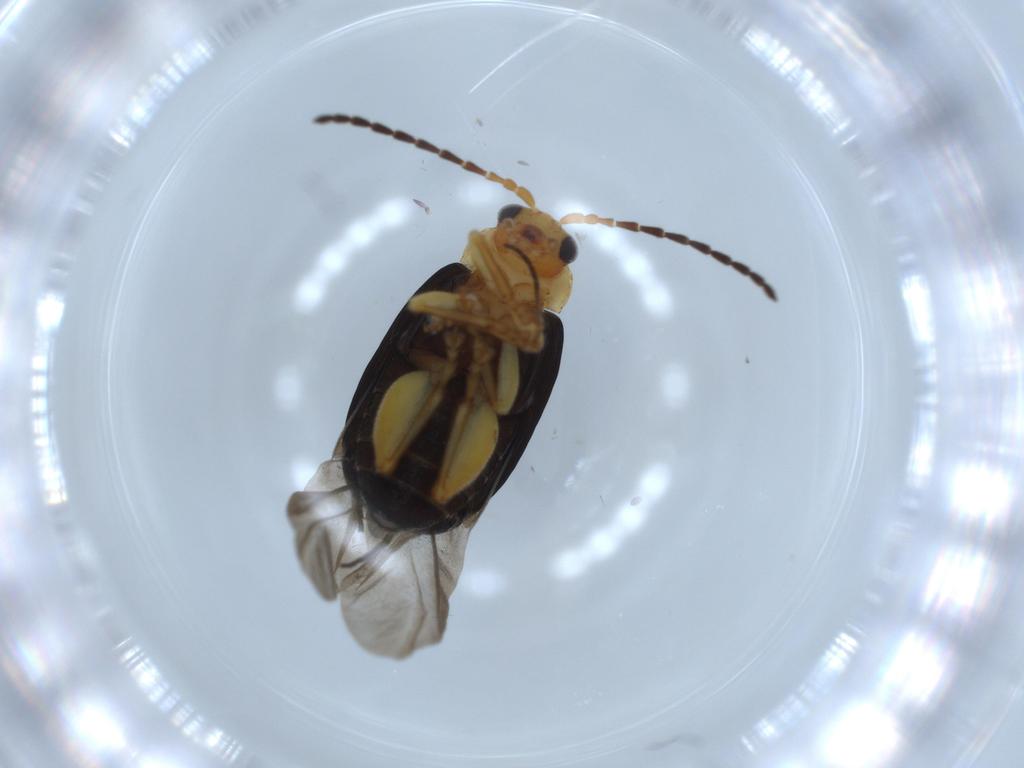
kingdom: Animalia
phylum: Arthropoda
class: Insecta
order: Coleoptera
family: Chrysomelidae
